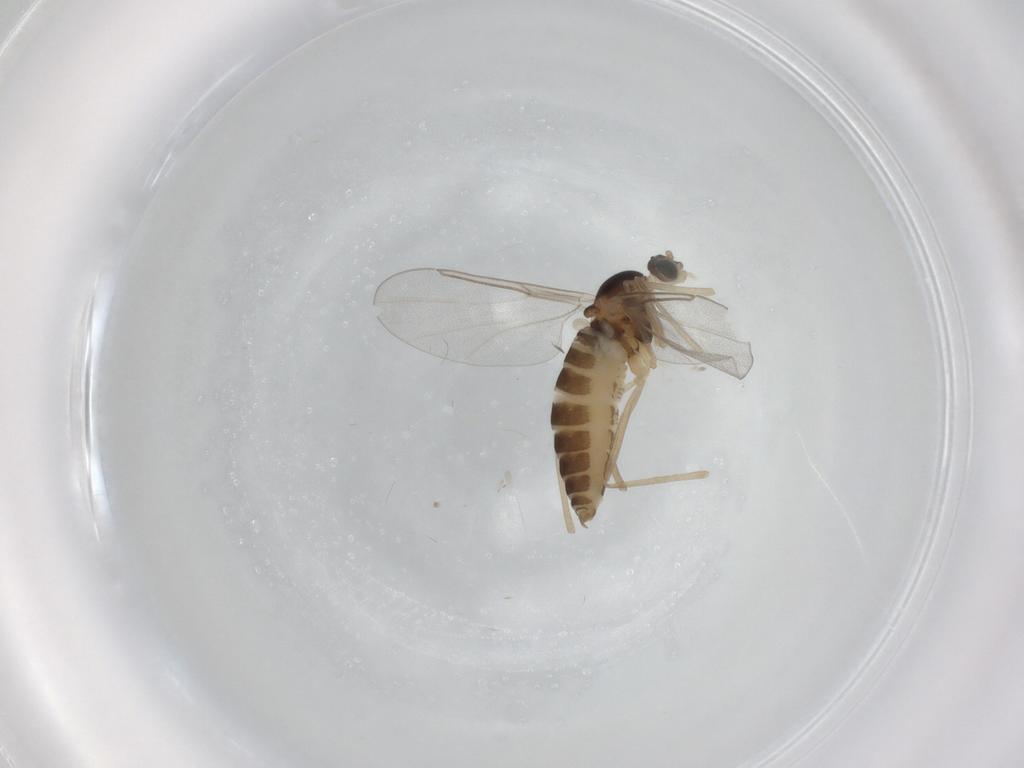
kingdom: Animalia
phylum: Arthropoda
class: Insecta
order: Diptera
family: Cecidomyiidae
